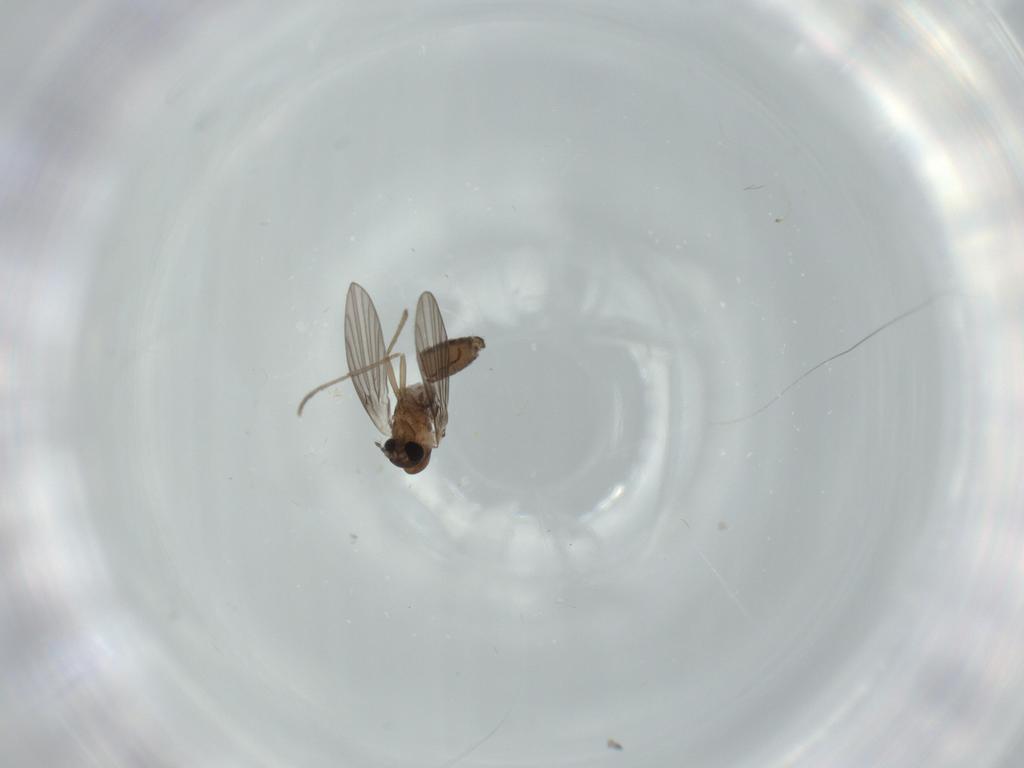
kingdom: Animalia
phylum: Arthropoda
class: Insecta
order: Diptera
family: Psychodidae
